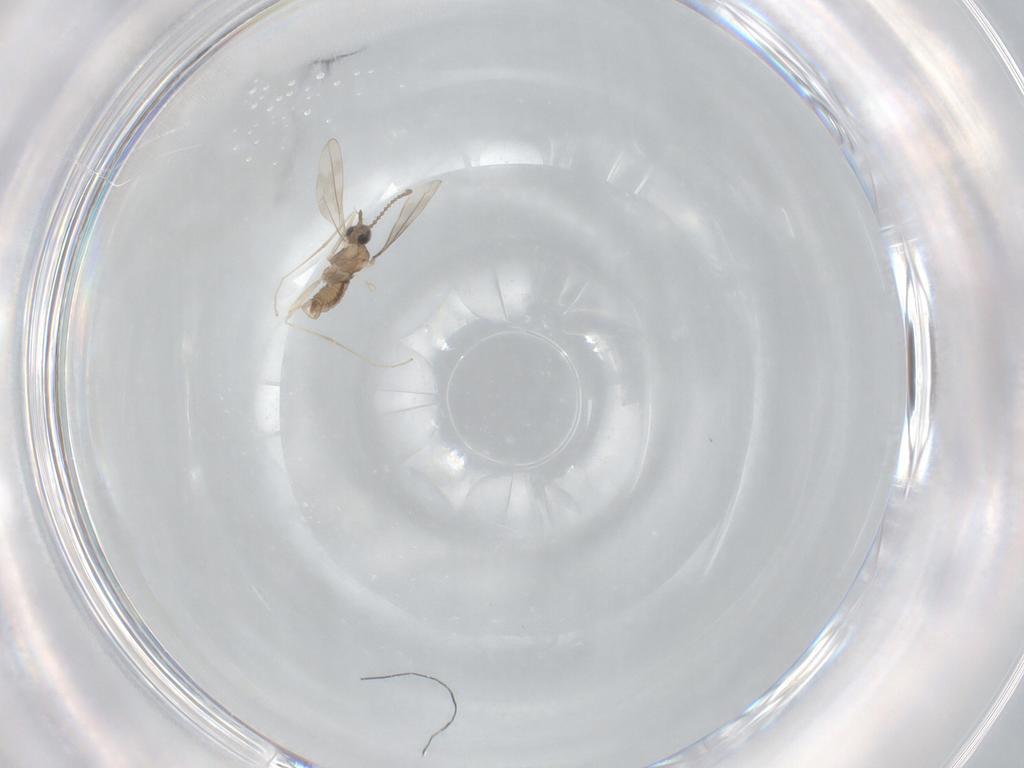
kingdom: Animalia
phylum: Arthropoda
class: Insecta
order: Diptera
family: Cecidomyiidae
